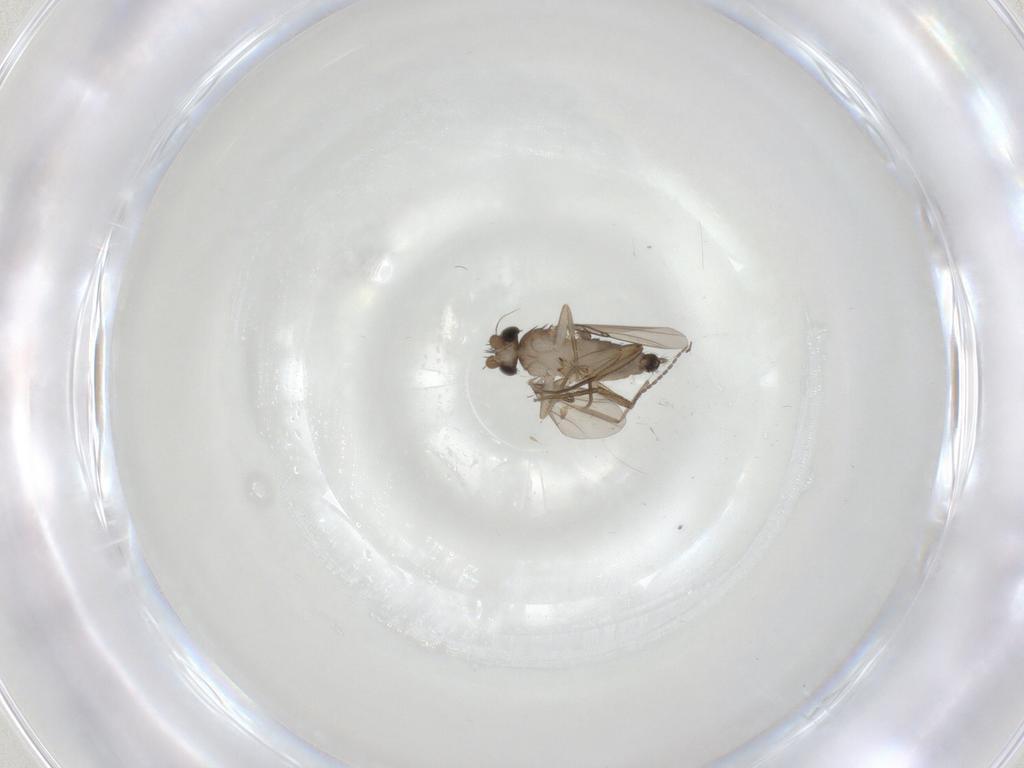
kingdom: Animalia
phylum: Arthropoda
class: Insecta
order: Diptera
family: Phoridae
